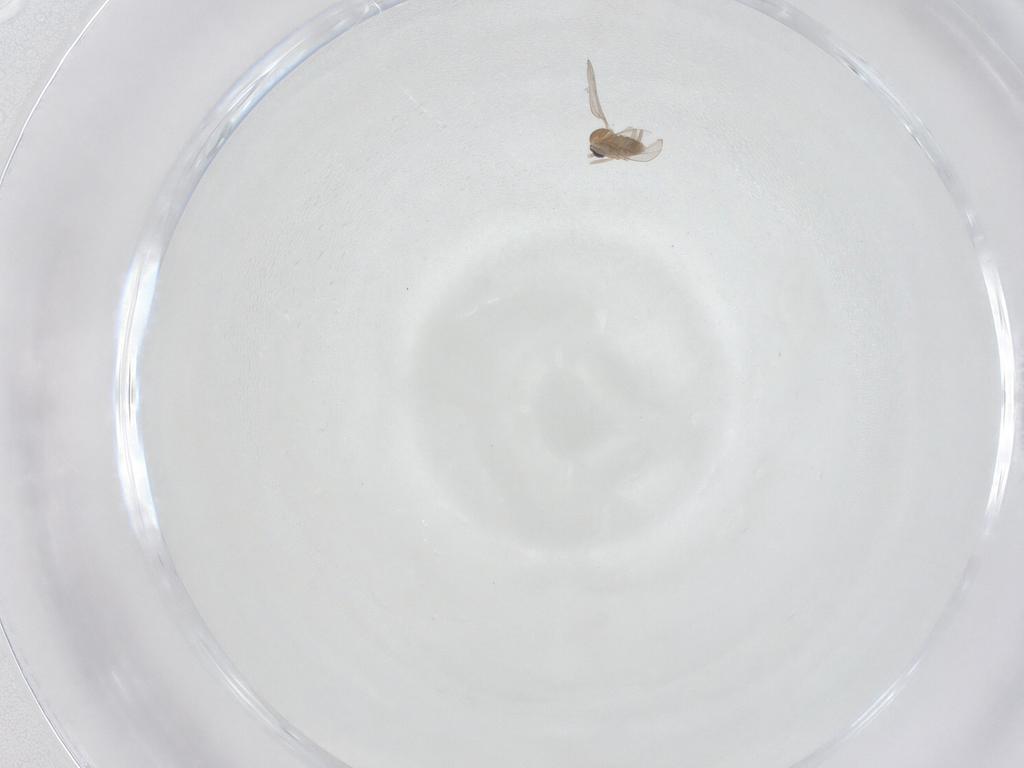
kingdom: Animalia
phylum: Arthropoda
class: Insecta
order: Diptera
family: Cecidomyiidae
